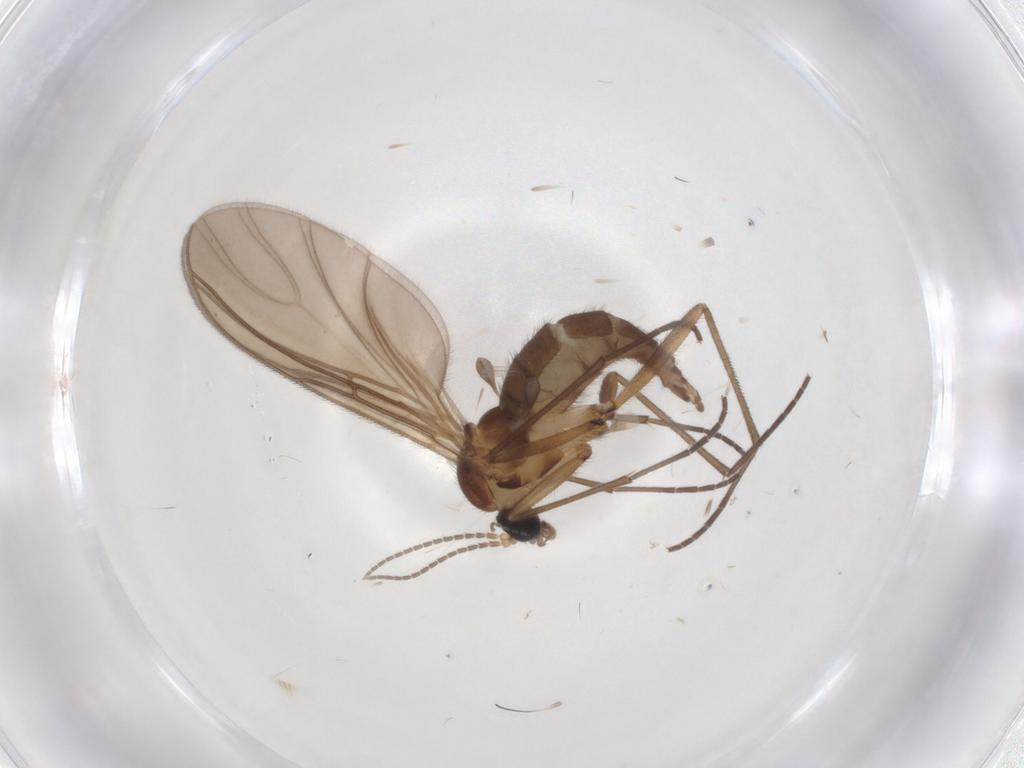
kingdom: Animalia
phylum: Arthropoda
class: Insecta
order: Diptera
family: Sciaridae
